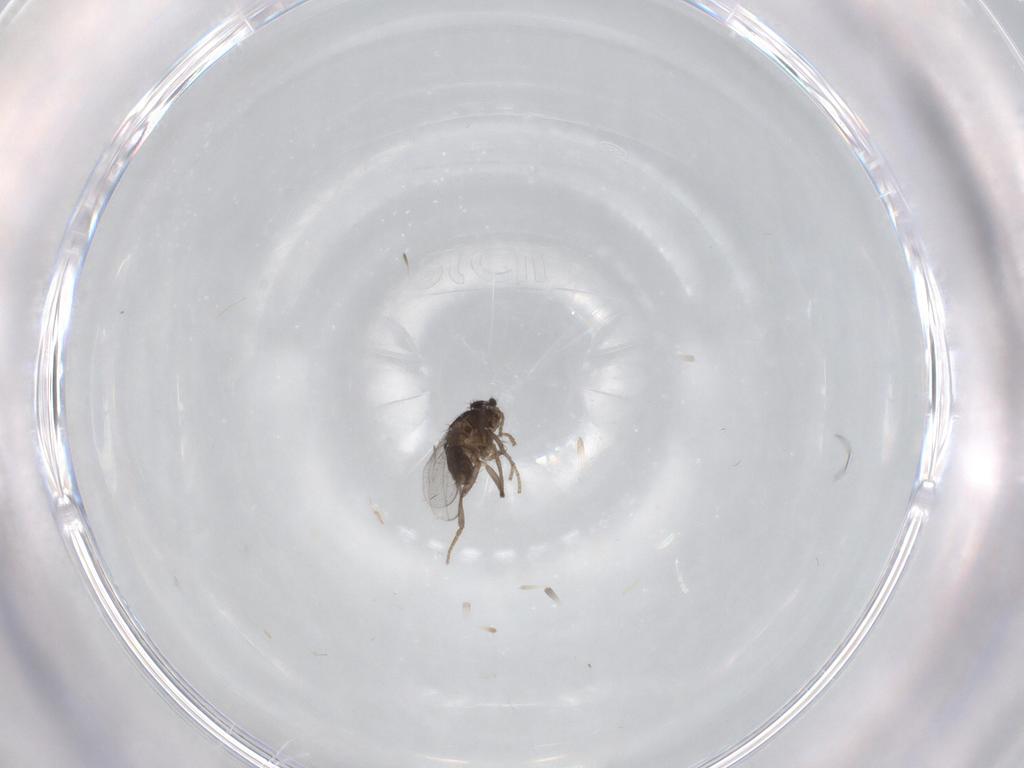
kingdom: Animalia
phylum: Arthropoda
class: Insecta
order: Diptera
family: Sphaeroceridae
